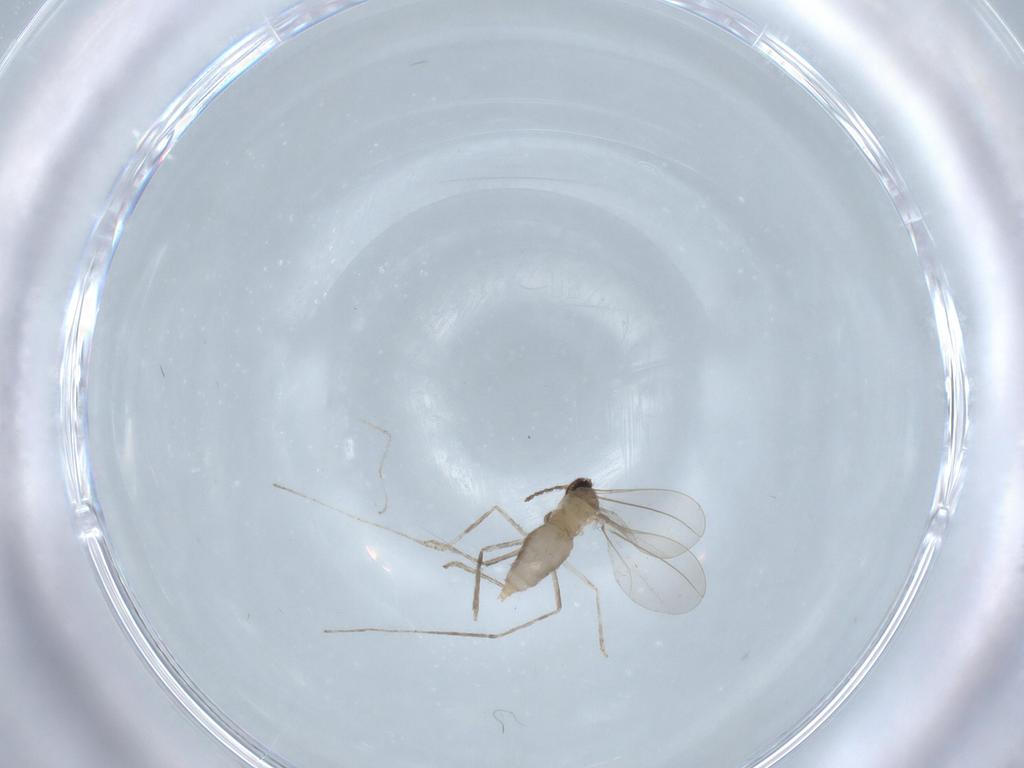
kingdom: Animalia
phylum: Arthropoda
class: Insecta
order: Diptera
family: Cecidomyiidae
